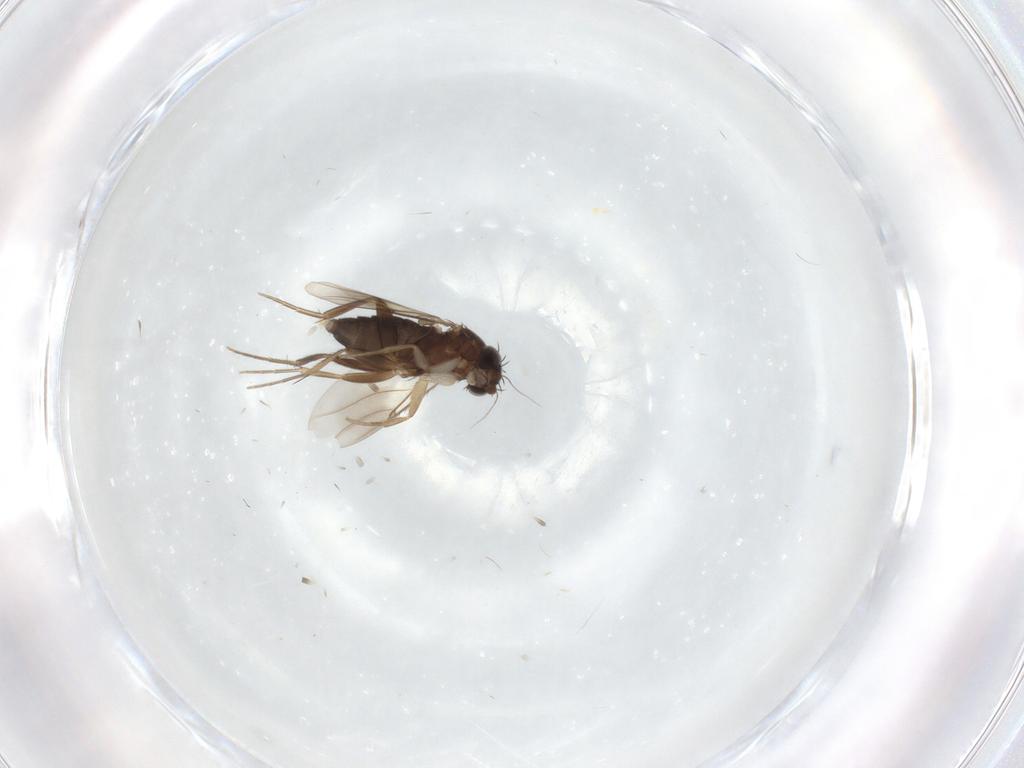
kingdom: Animalia
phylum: Arthropoda
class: Insecta
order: Diptera
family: Phoridae
